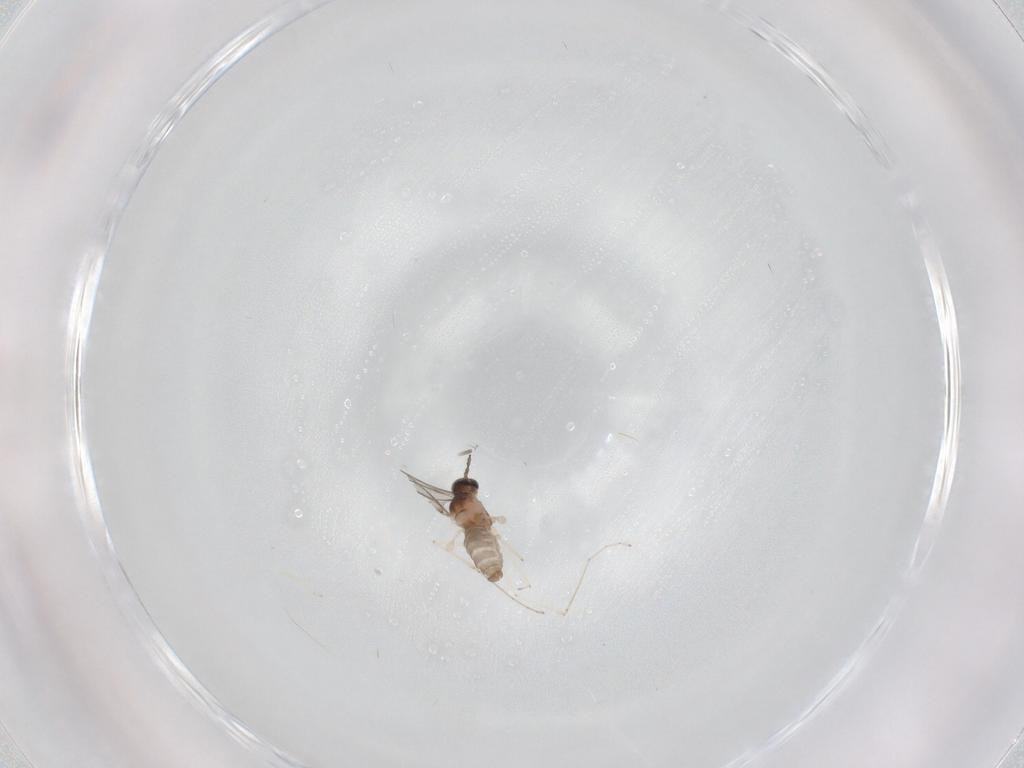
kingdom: Animalia
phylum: Arthropoda
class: Insecta
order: Diptera
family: Cecidomyiidae
